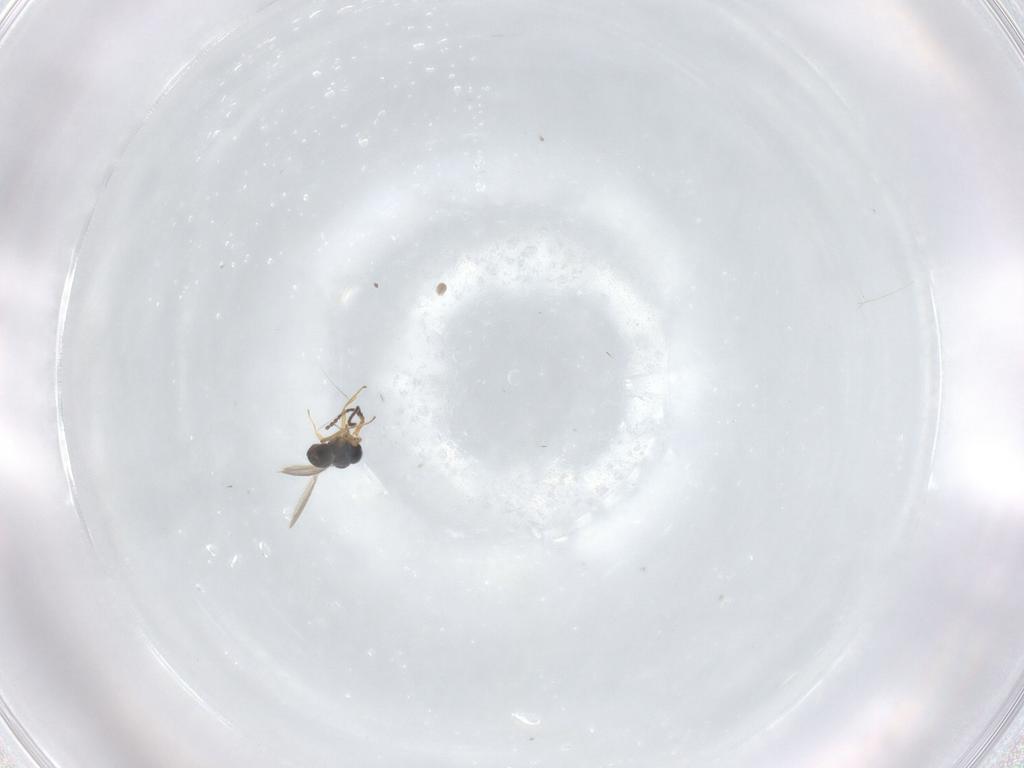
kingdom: Animalia
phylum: Arthropoda
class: Insecta
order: Hymenoptera
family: Scelionidae
